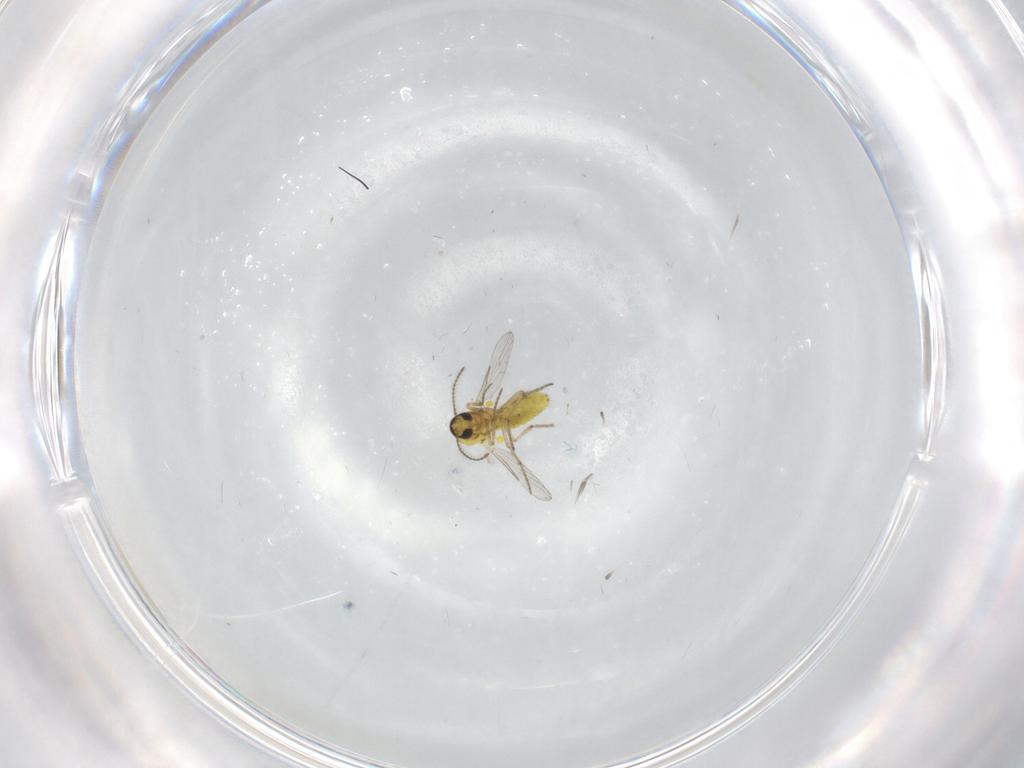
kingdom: Animalia
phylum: Arthropoda
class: Insecta
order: Diptera
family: Ceratopogonidae
